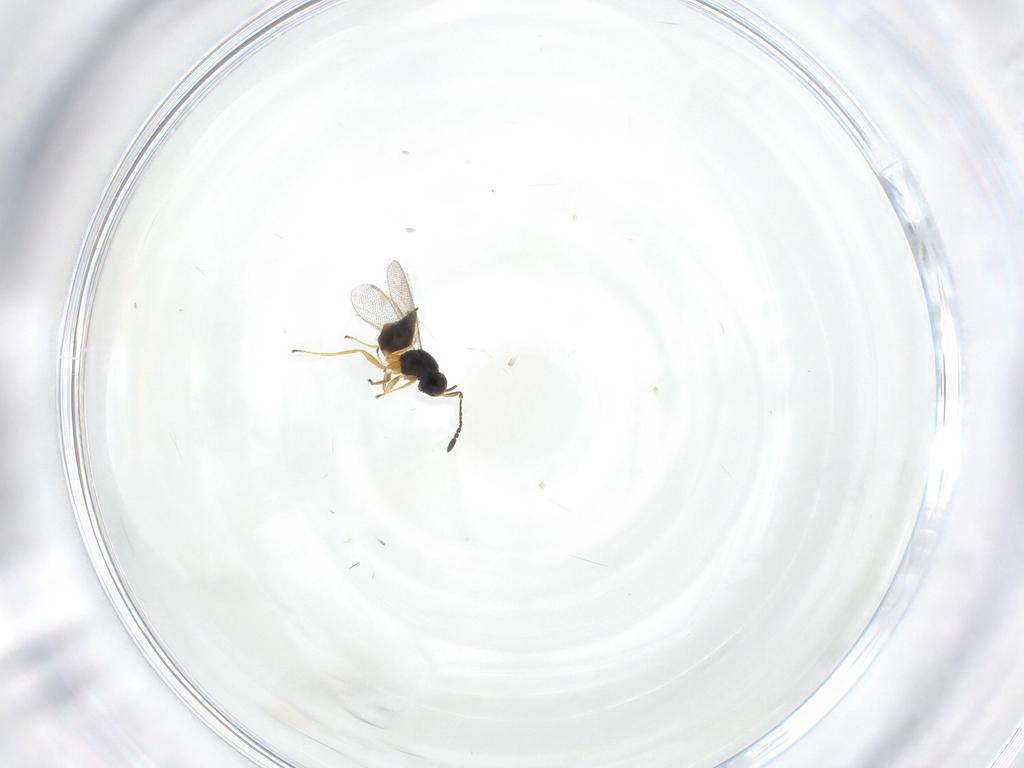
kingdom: Animalia
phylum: Arthropoda
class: Insecta
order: Hymenoptera
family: Mymaridae
